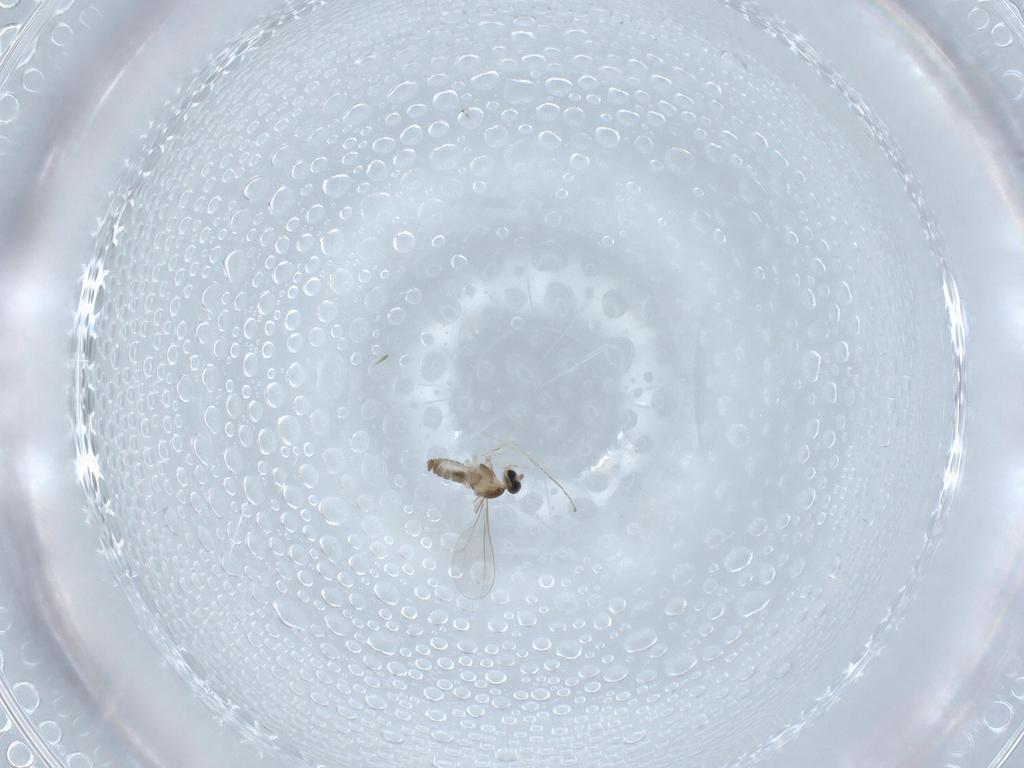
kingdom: Animalia
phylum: Arthropoda
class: Insecta
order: Diptera
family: Cecidomyiidae
